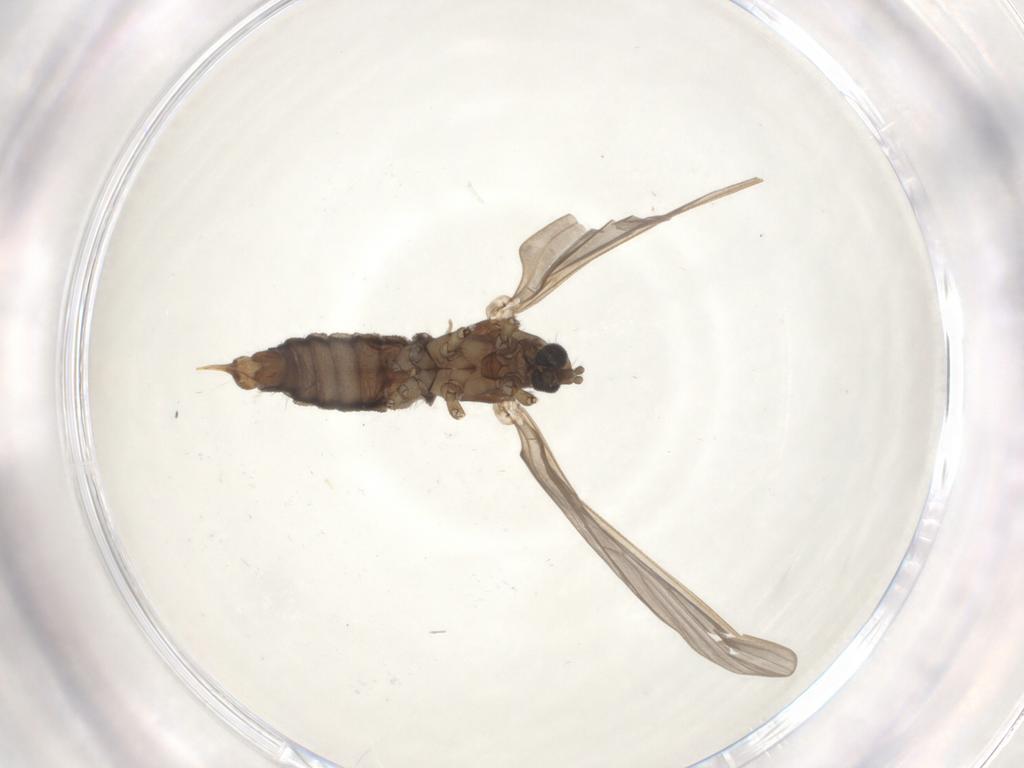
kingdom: Animalia
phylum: Arthropoda
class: Insecta
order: Diptera
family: Limoniidae
